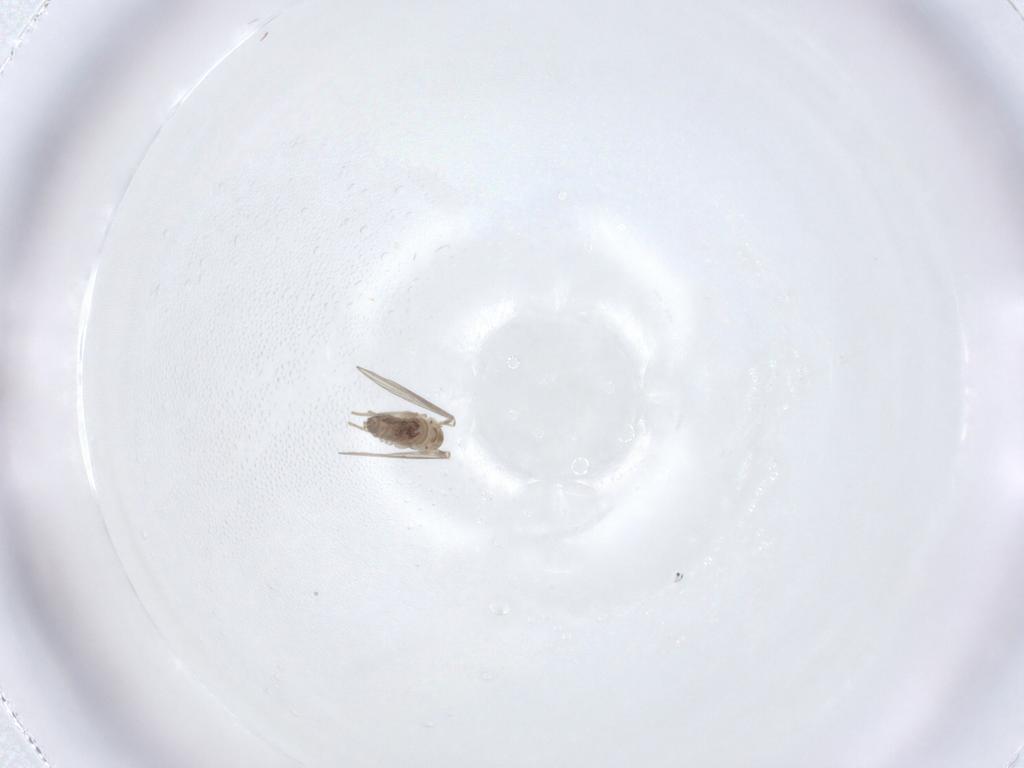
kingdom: Animalia
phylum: Arthropoda
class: Insecta
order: Diptera
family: Psychodidae
